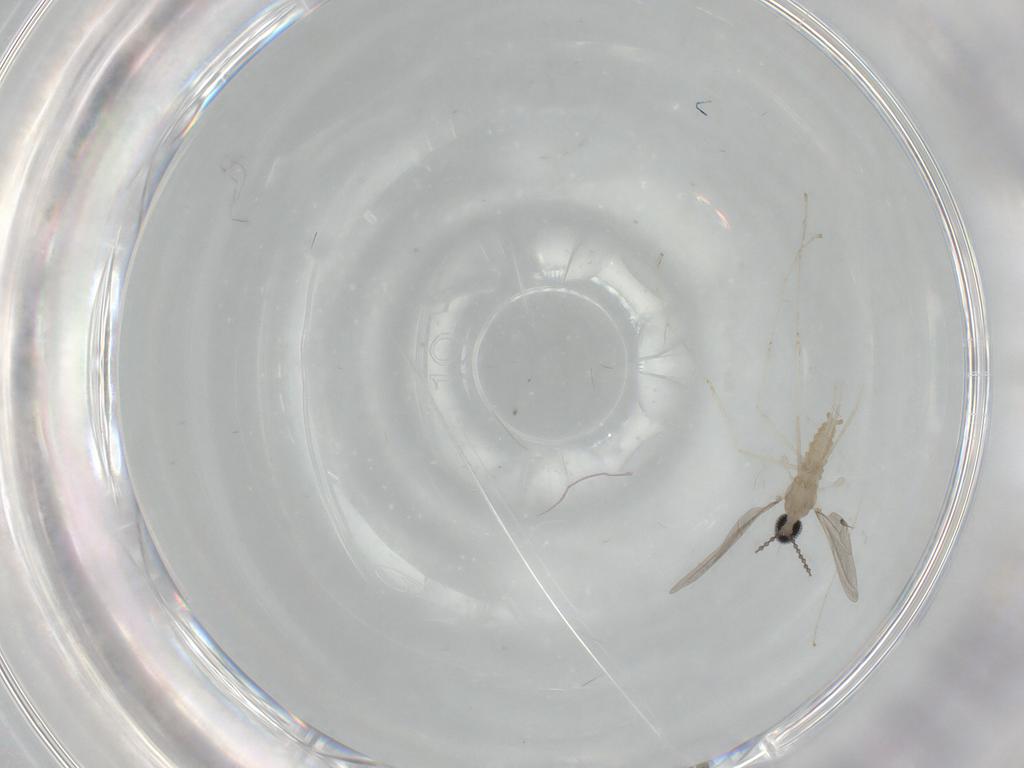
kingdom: Animalia
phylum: Arthropoda
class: Insecta
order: Diptera
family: Cecidomyiidae
